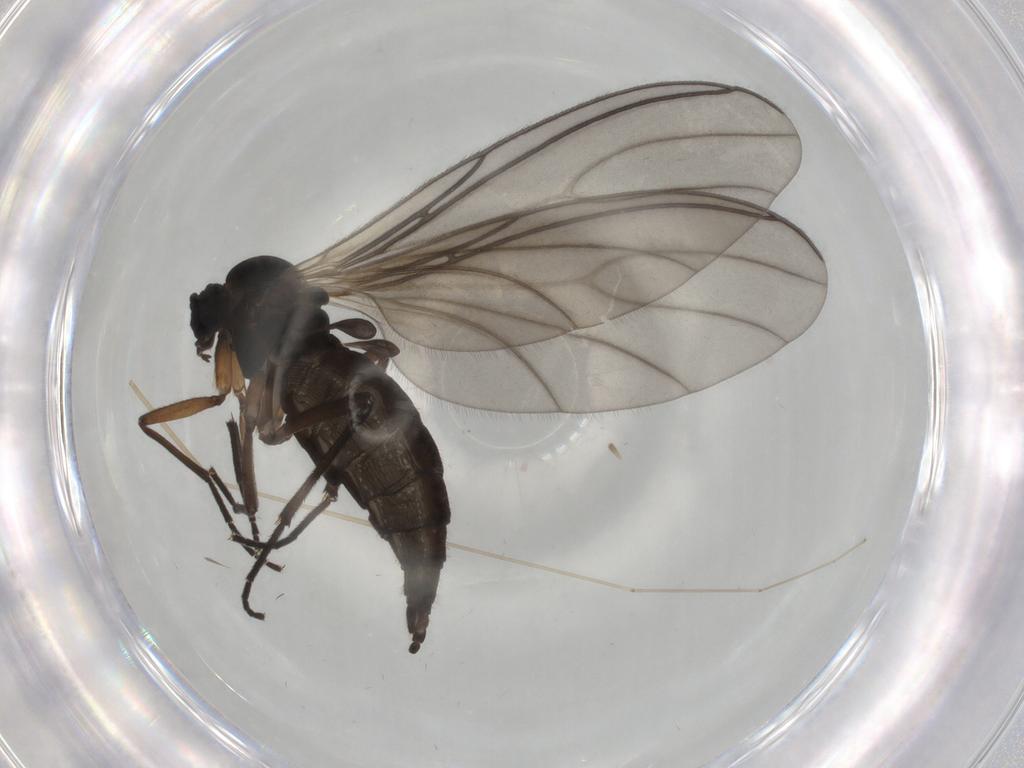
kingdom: Animalia
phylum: Arthropoda
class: Insecta
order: Diptera
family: Sciaridae
